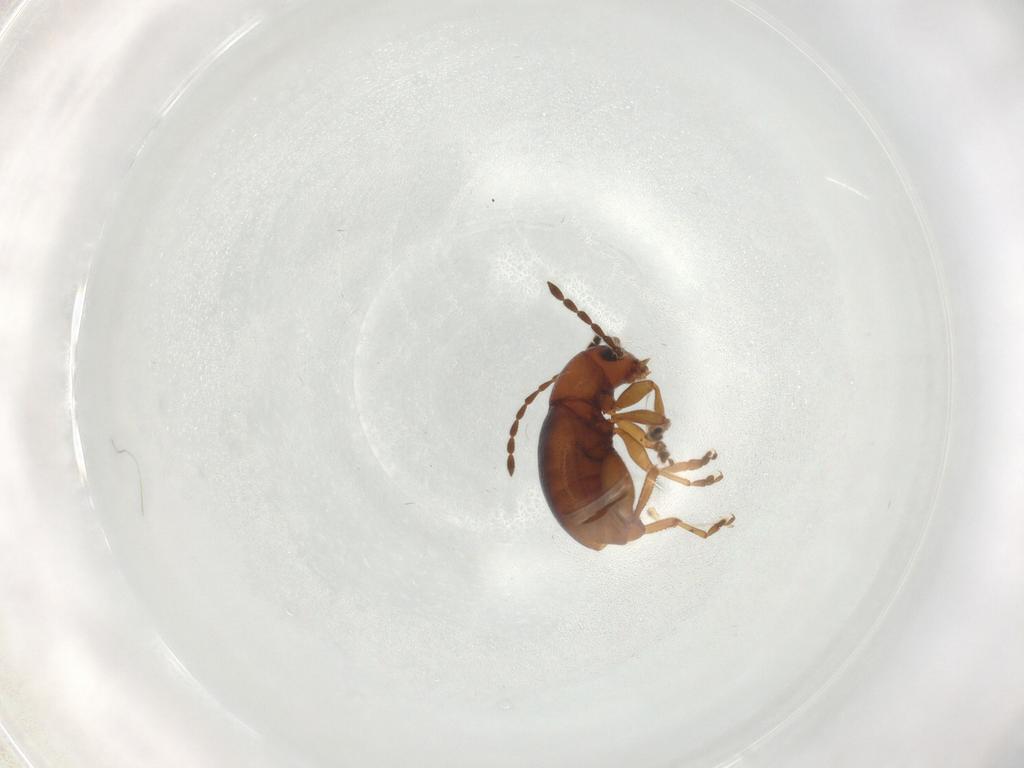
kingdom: Animalia
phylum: Arthropoda
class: Insecta
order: Coleoptera
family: Chrysomelidae
